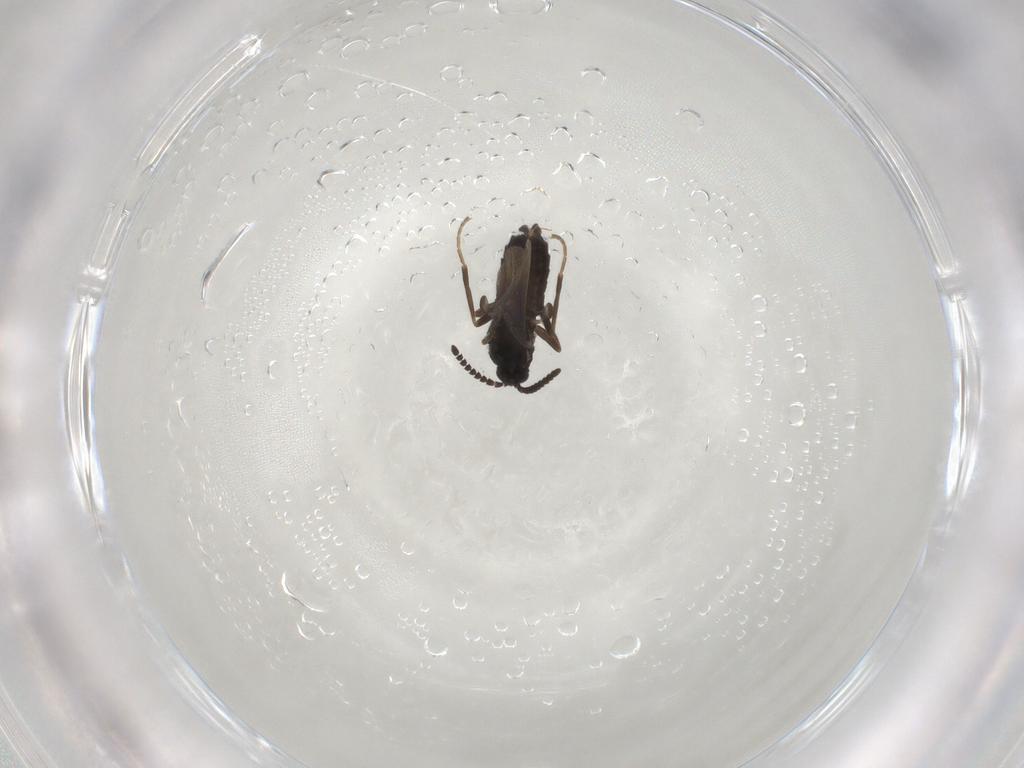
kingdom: Animalia
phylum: Arthropoda
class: Insecta
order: Diptera
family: Scatopsidae
